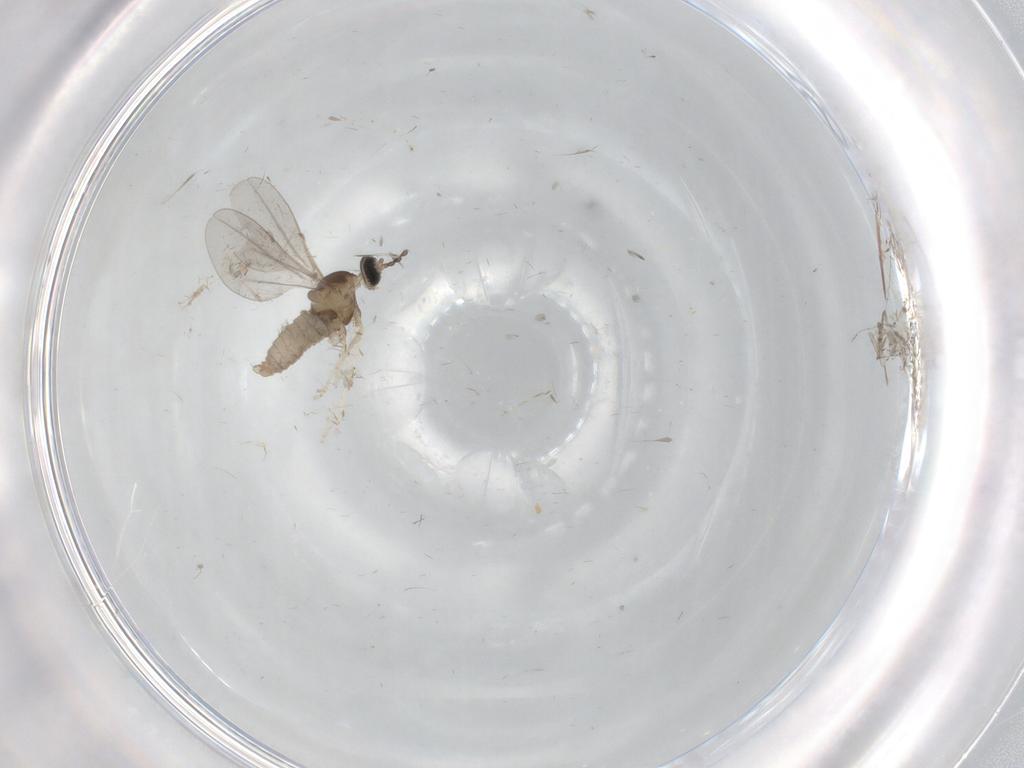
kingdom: Animalia
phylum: Arthropoda
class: Insecta
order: Diptera
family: Cecidomyiidae
